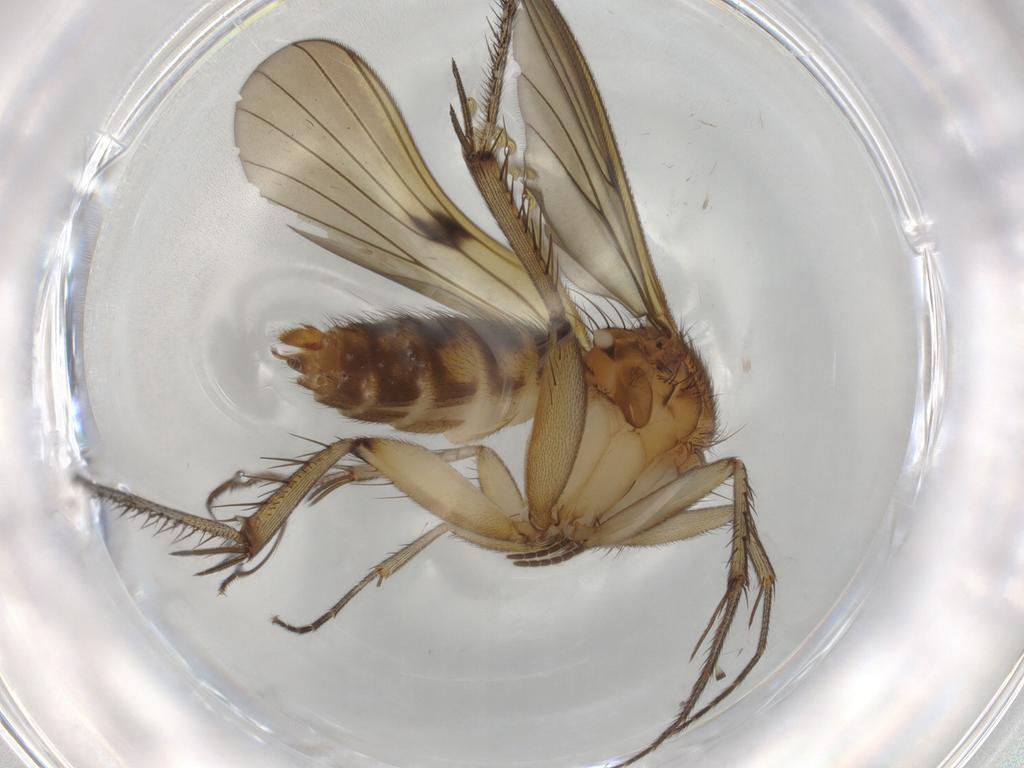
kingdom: Animalia
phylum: Arthropoda
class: Insecta
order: Diptera
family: Mycetophilidae
